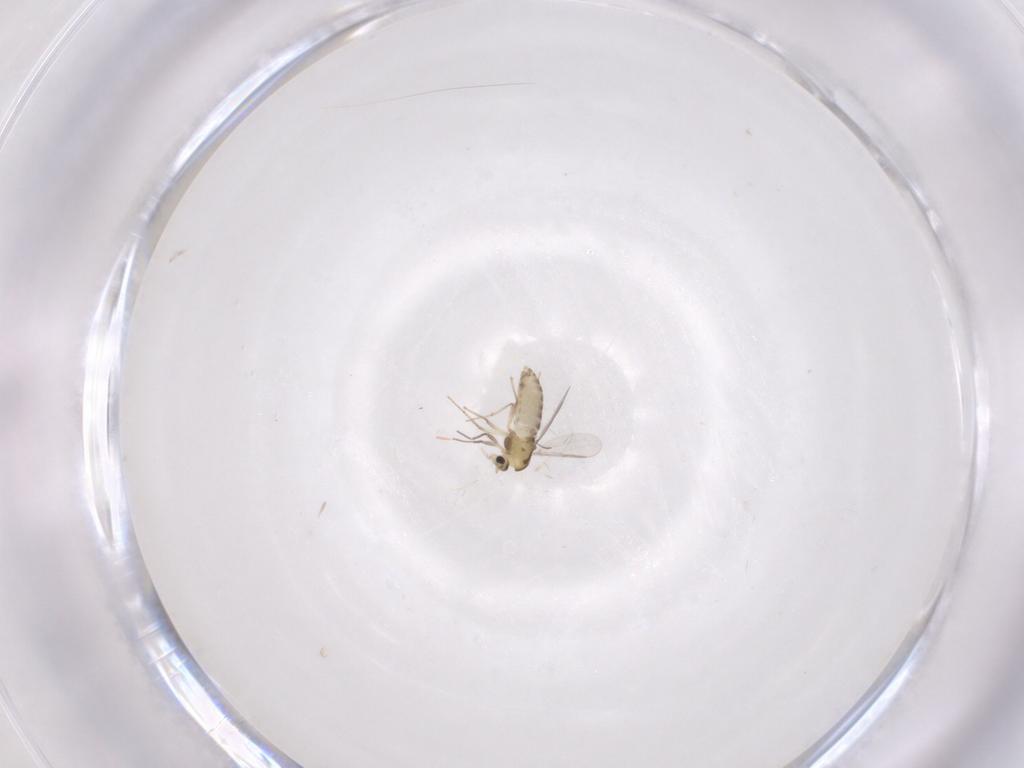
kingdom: Animalia
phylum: Arthropoda
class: Insecta
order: Diptera
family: Chironomidae
